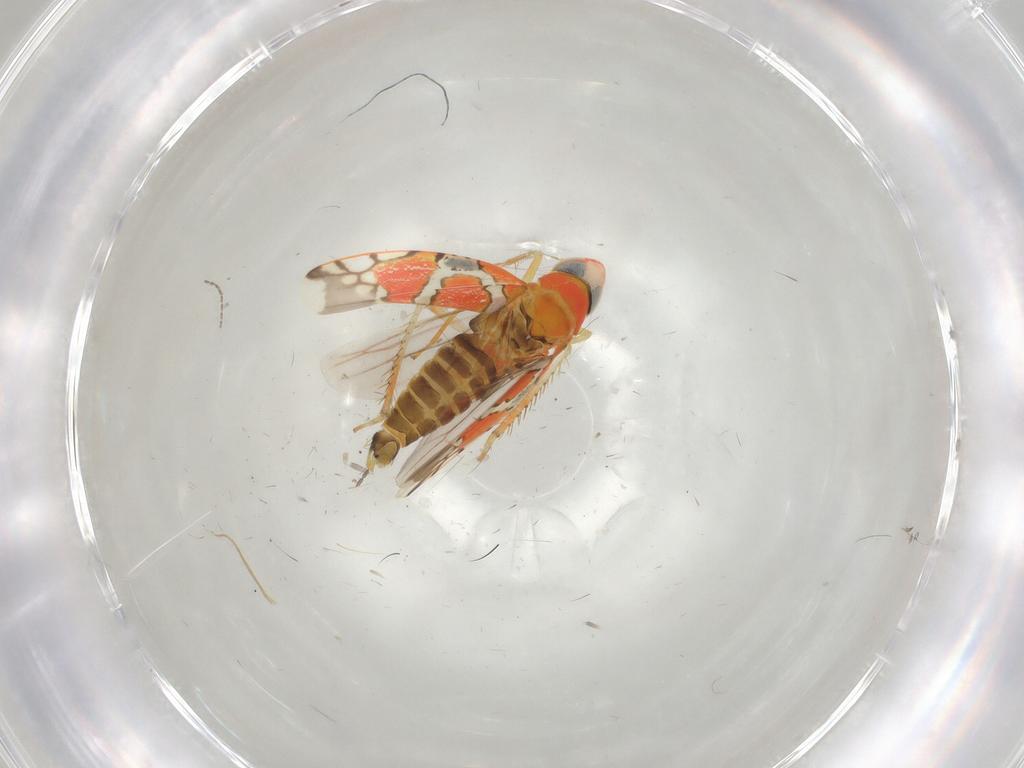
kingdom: Animalia
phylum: Arthropoda
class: Insecta
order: Hemiptera
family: Cicadellidae
